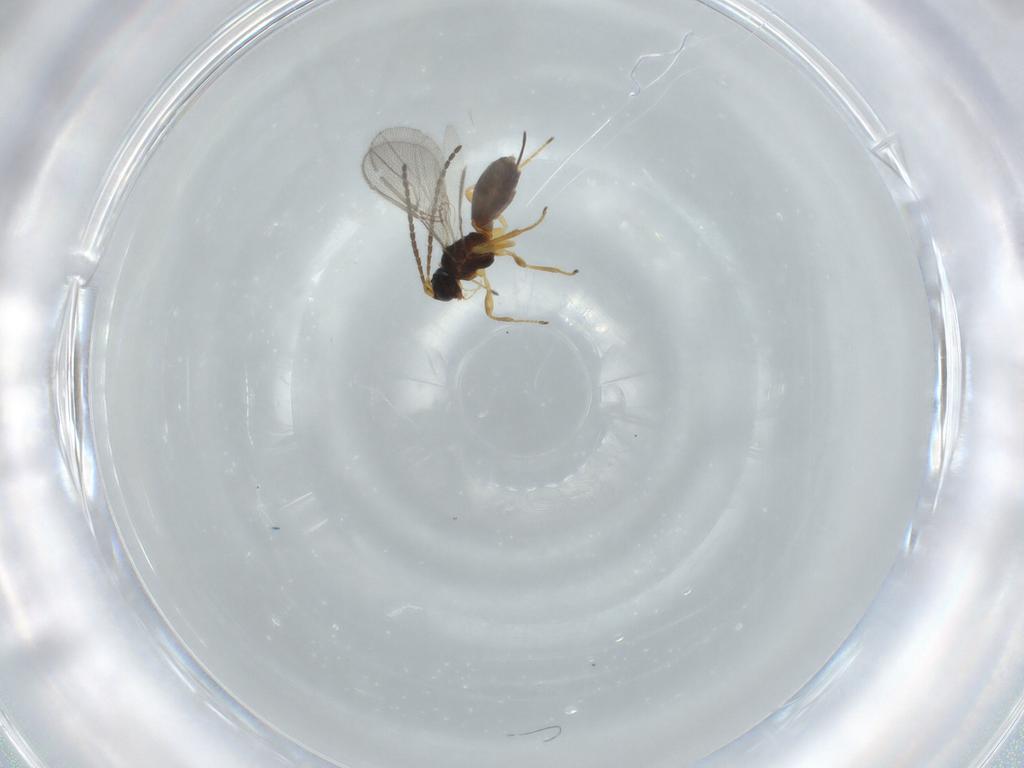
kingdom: Animalia
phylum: Arthropoda
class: Insecta
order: Hymenoptera
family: Braconidae
